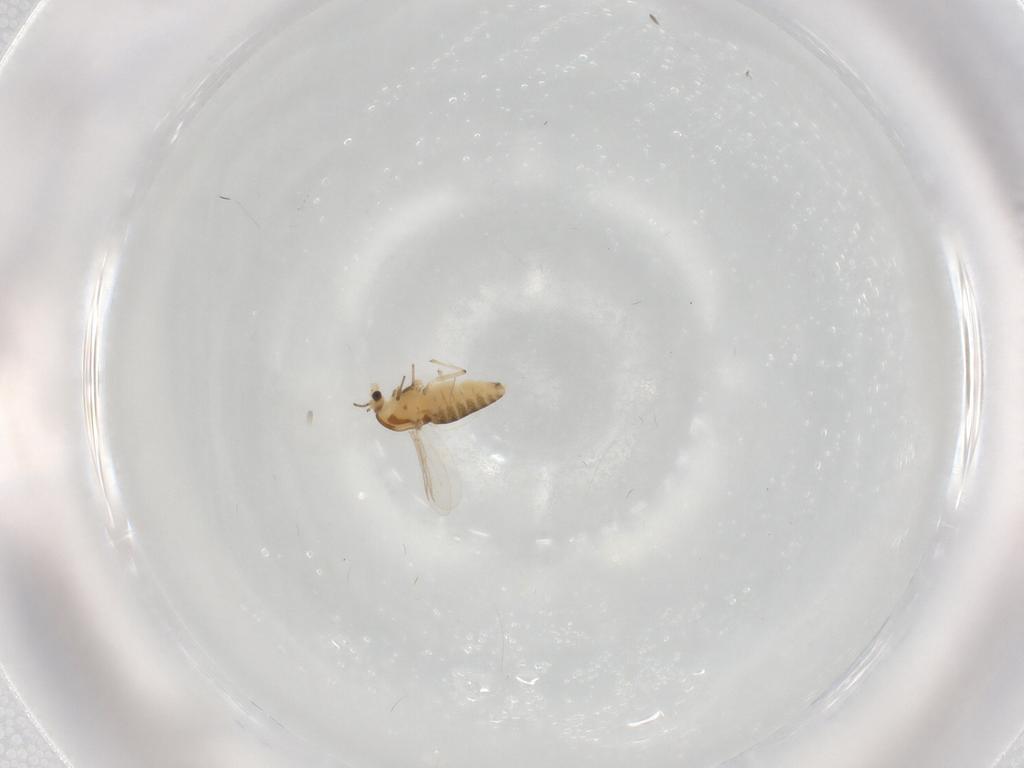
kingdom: Animalia
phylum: Arthropoda
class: Insecta
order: Diptera
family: Chironomidae
